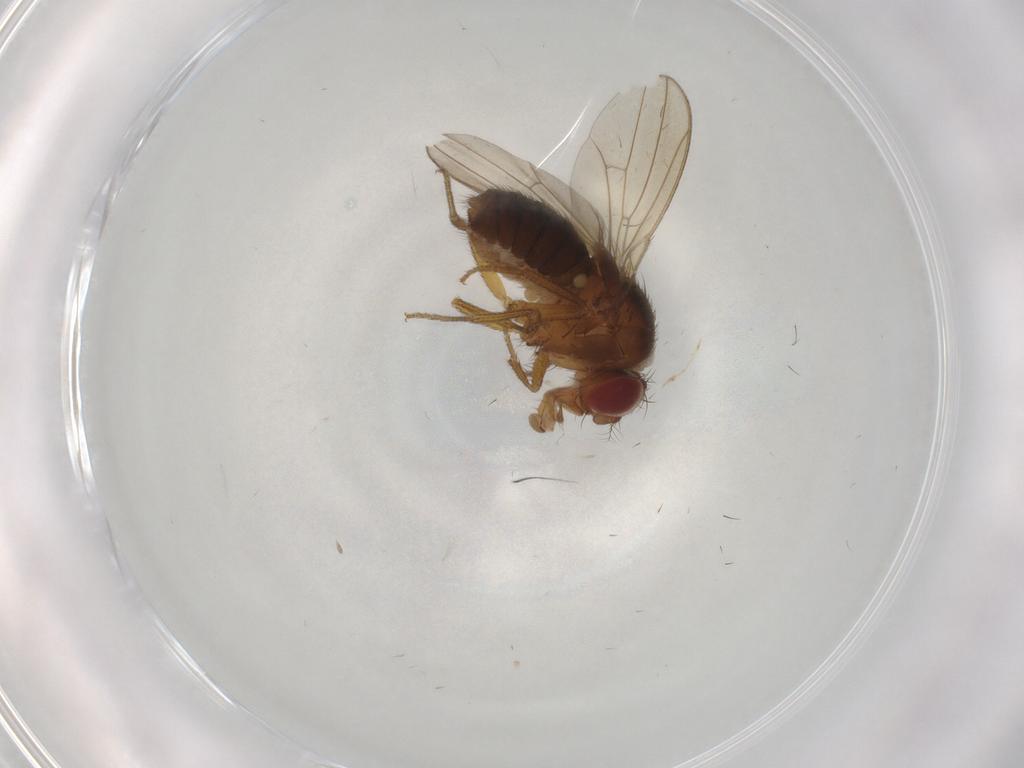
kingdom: Animalia
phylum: Arthropoda
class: Insecta
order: Diptera
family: Drosophilidae
